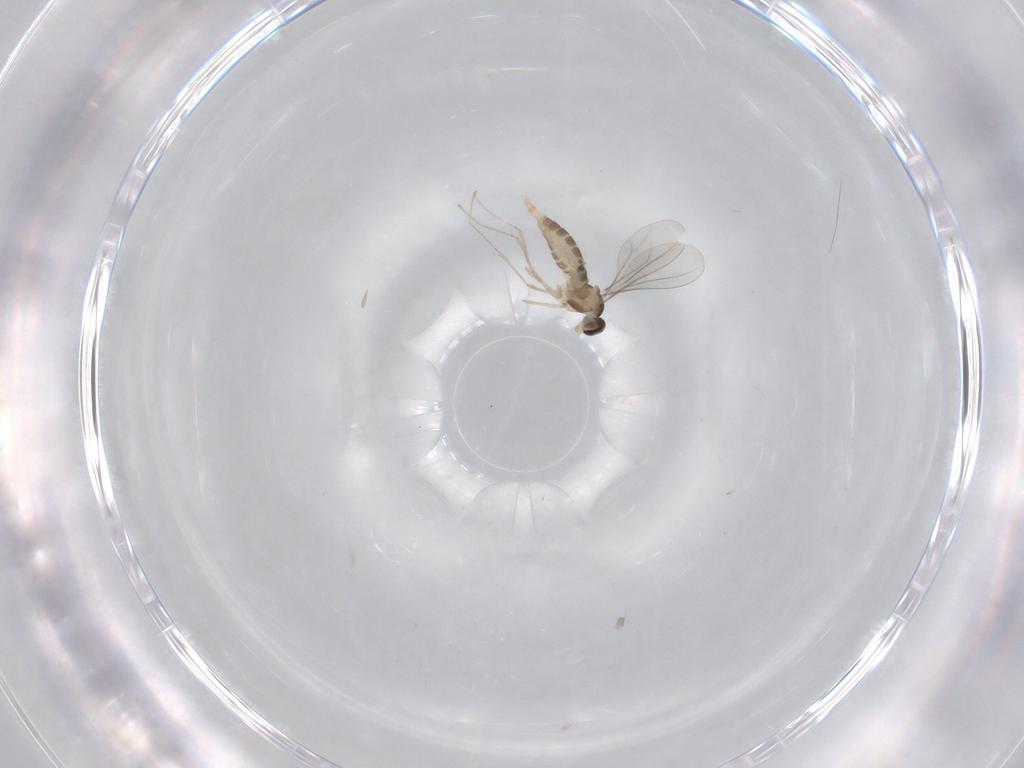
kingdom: Animalia
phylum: Arthropoda
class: Insecta
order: Diptera
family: Cecidomyiidae
